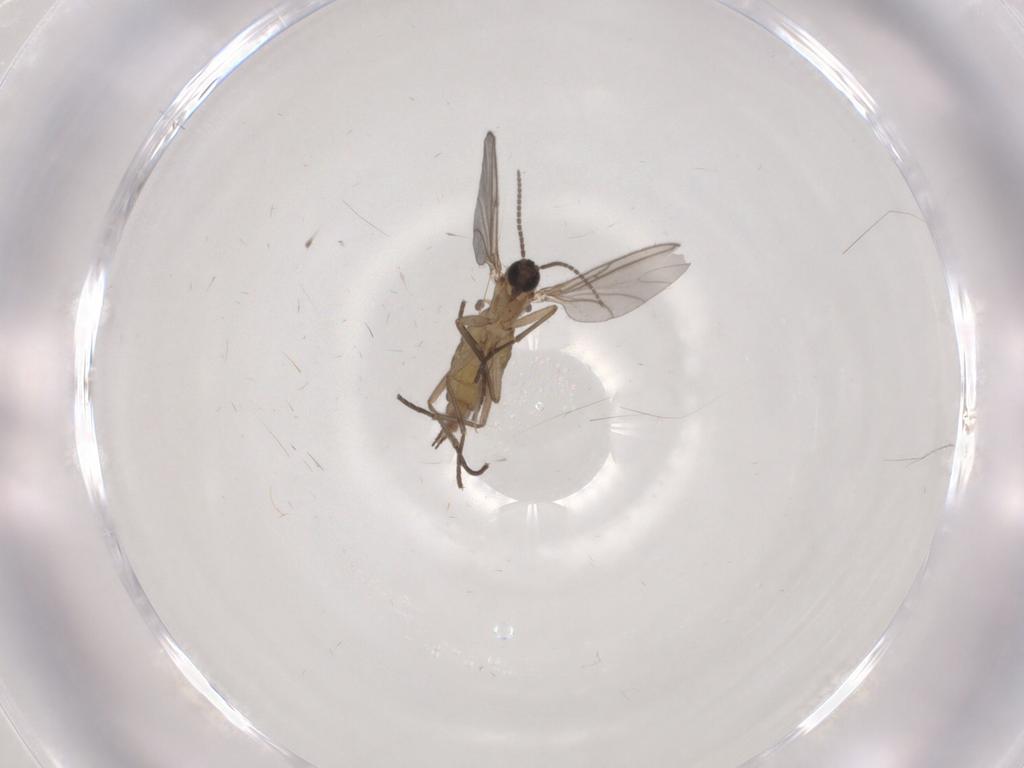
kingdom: Animalia
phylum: Arthropoda
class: Insecta
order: Diptera
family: Sciaridae
